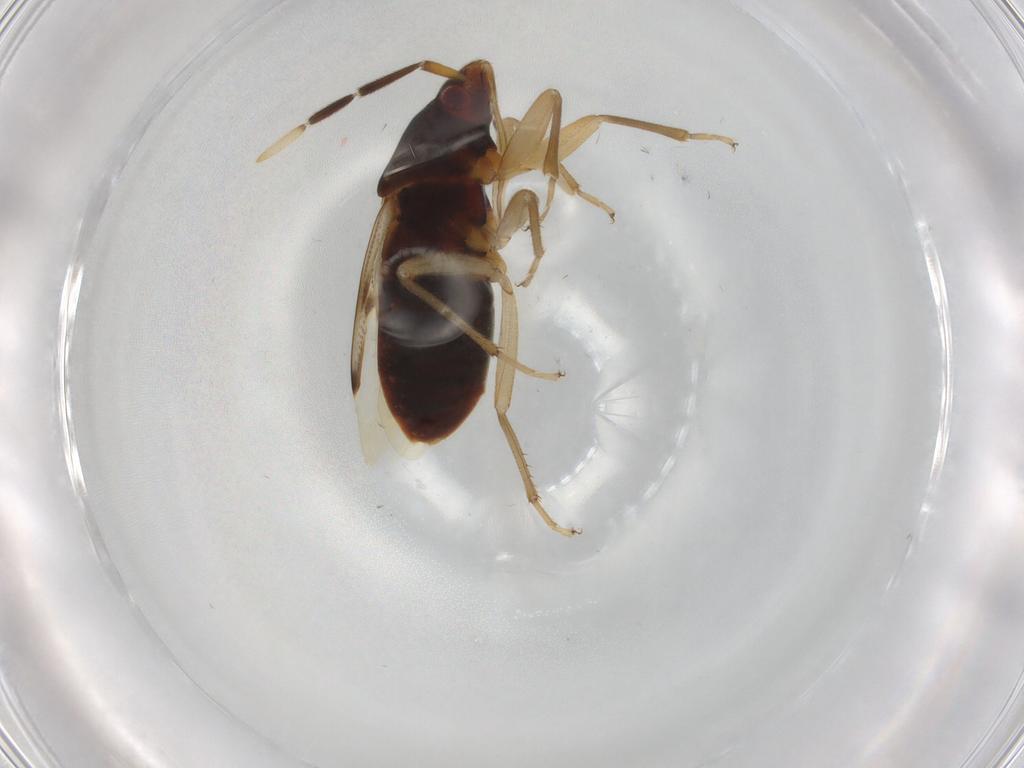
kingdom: Animalia
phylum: Arthropoda
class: Insecta
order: Hemiptera
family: Rhyparochromidae
